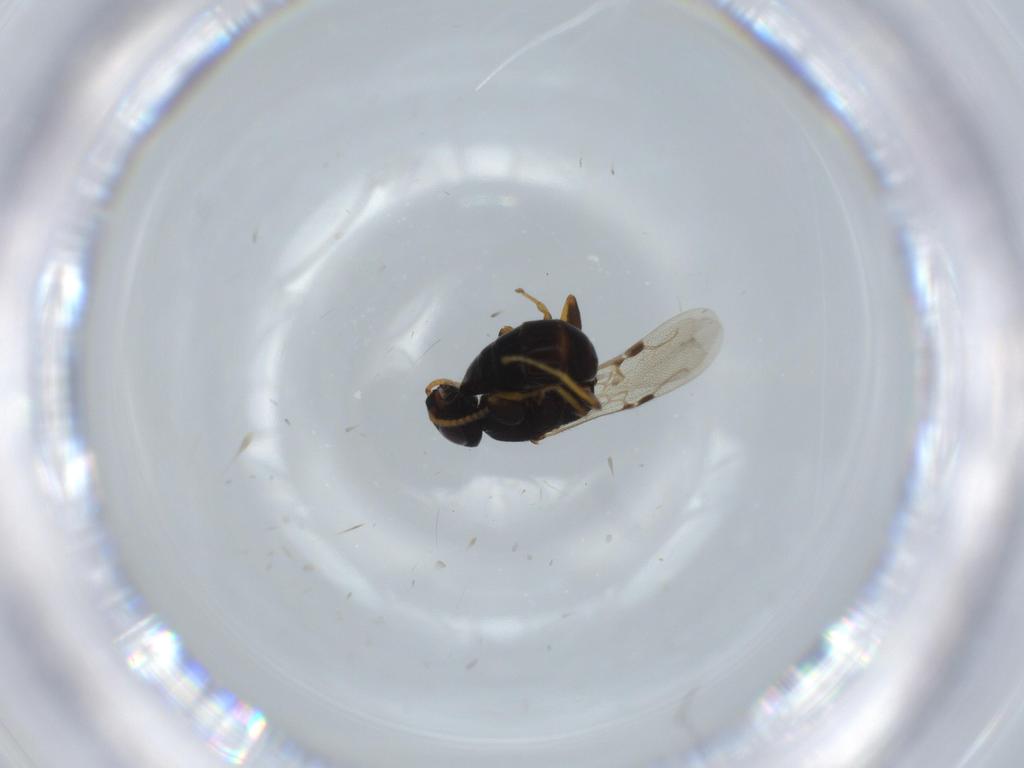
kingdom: Animalia
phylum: Arthropoda
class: Insecta
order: Hymenoptera
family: Bethylidae
